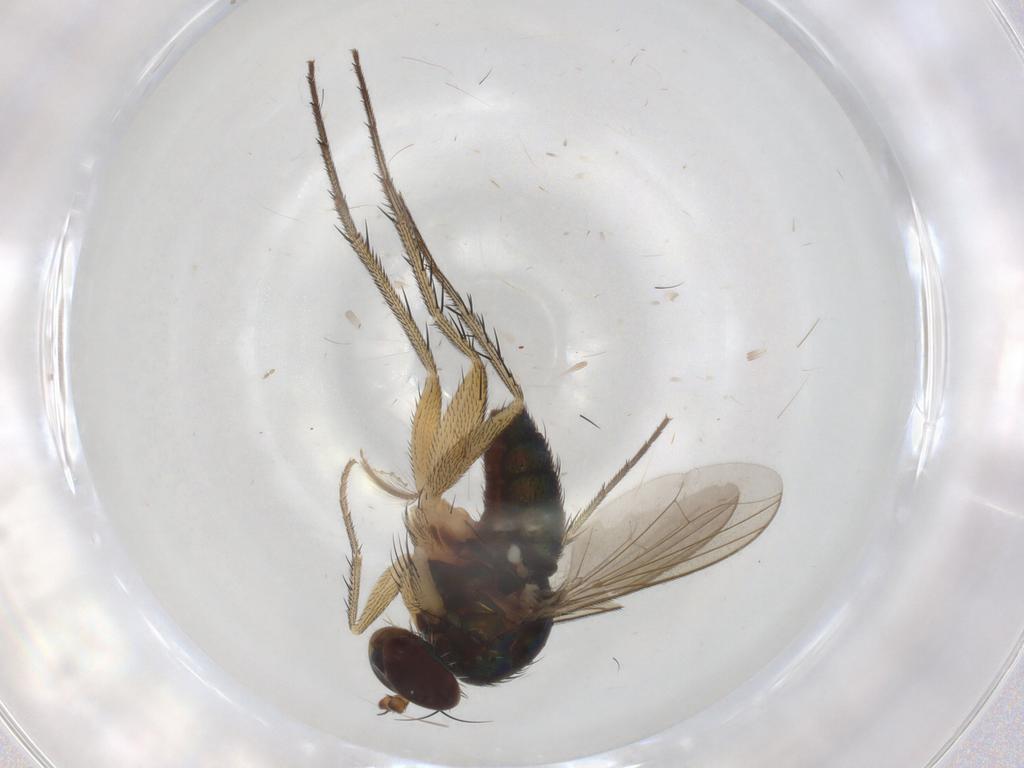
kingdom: Animalia
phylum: Arthropoda
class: Insecta
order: Diptera
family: Dolichopodidae
